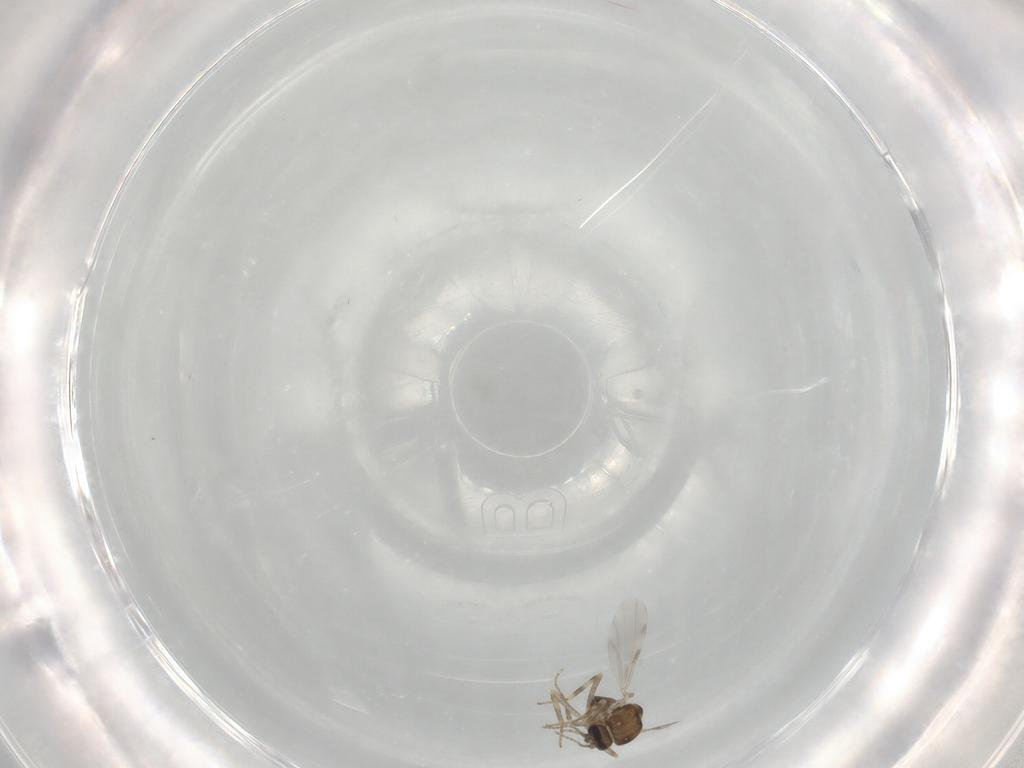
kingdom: Animalia
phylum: Arthropoda
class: Insecta
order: Diptera
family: Ceratopogonidae
